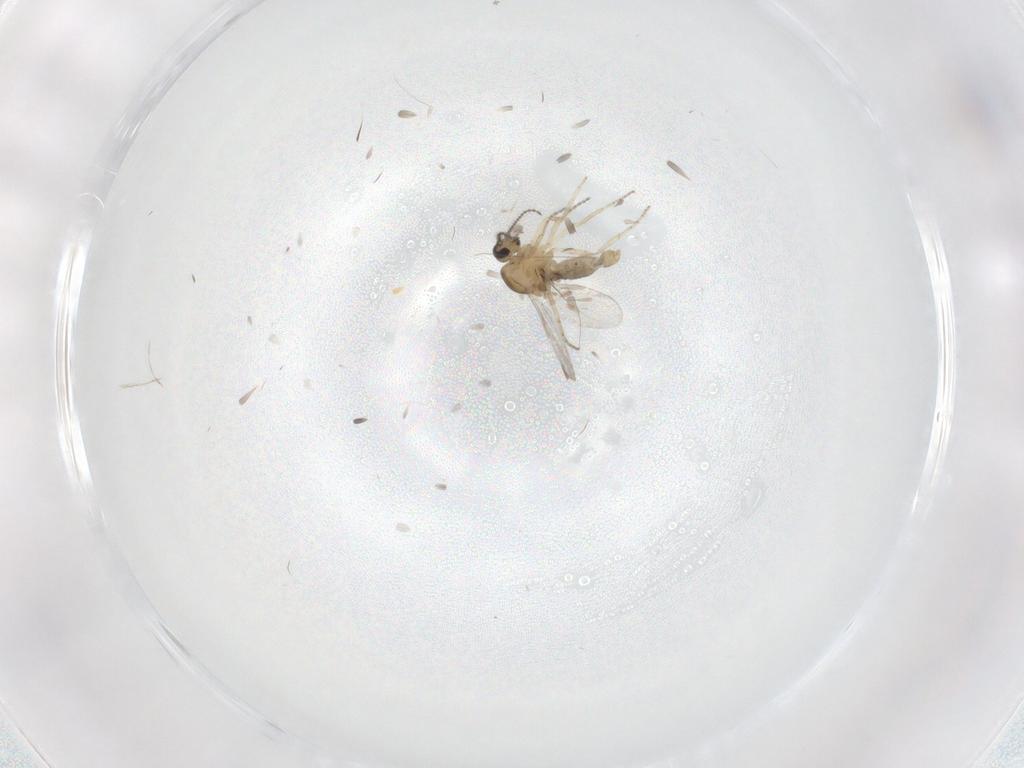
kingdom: Animalia
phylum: Arthropoda
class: Insecta
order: Diptera
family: Ceratopogonidae
